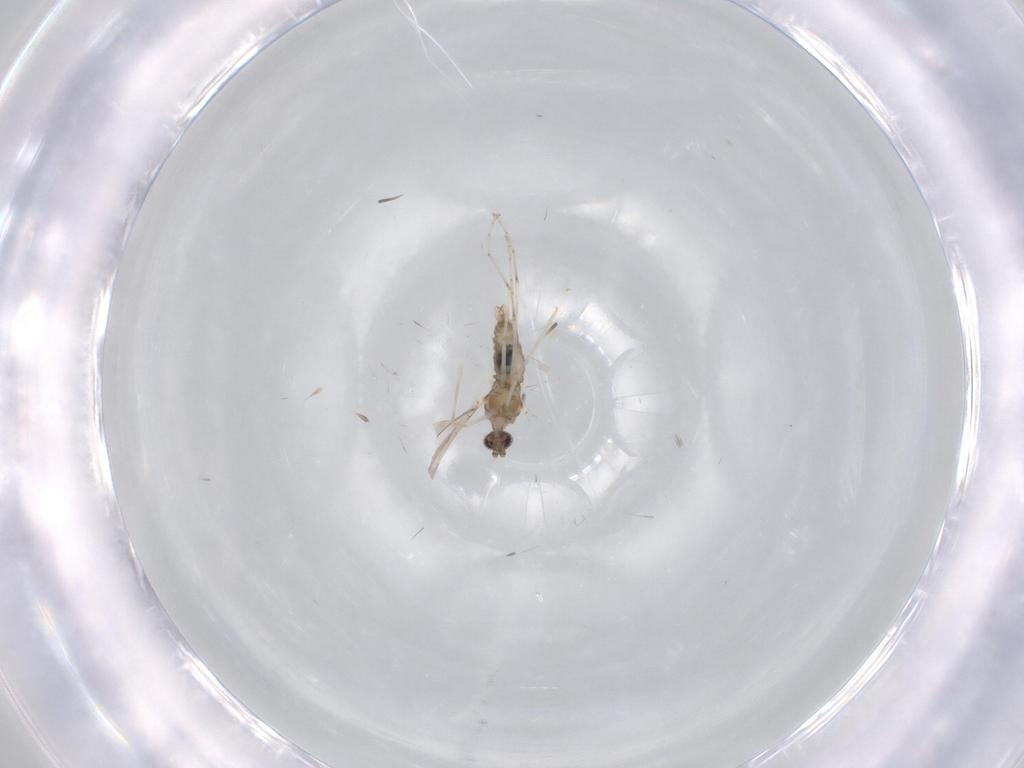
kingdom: Animalia
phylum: Arthropoda
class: Insecta
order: Diptera
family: Cecidomyiidae
